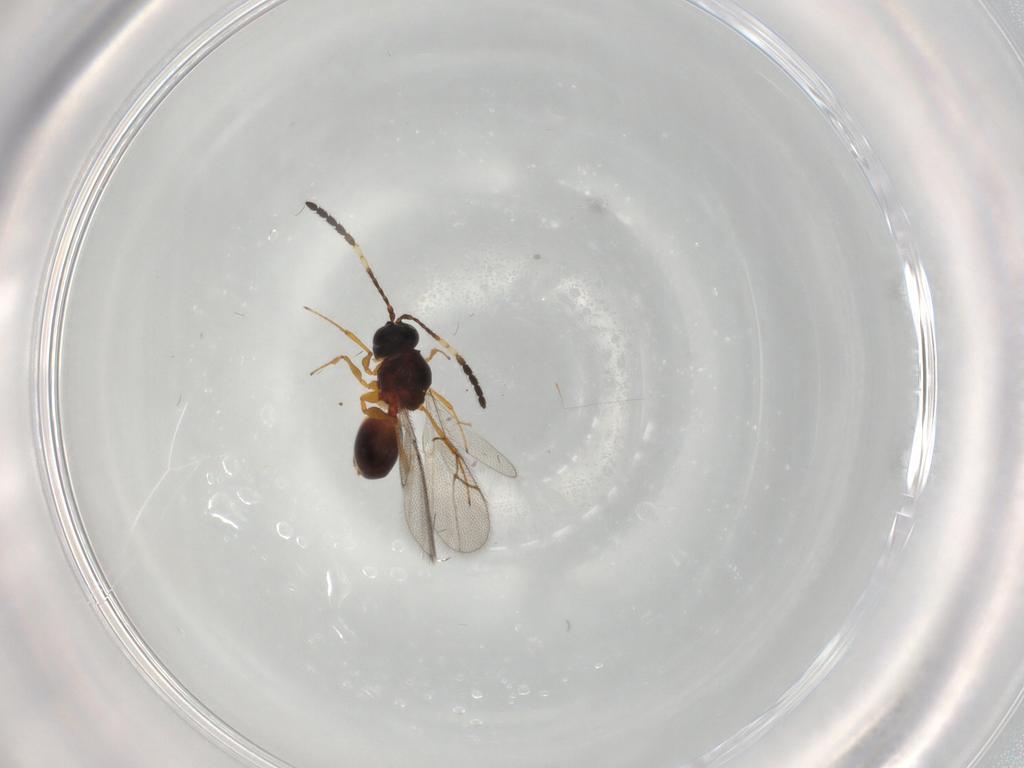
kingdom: Animalia
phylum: Arthropoda
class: Insecta
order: Hymenoptera
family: Figitidae
